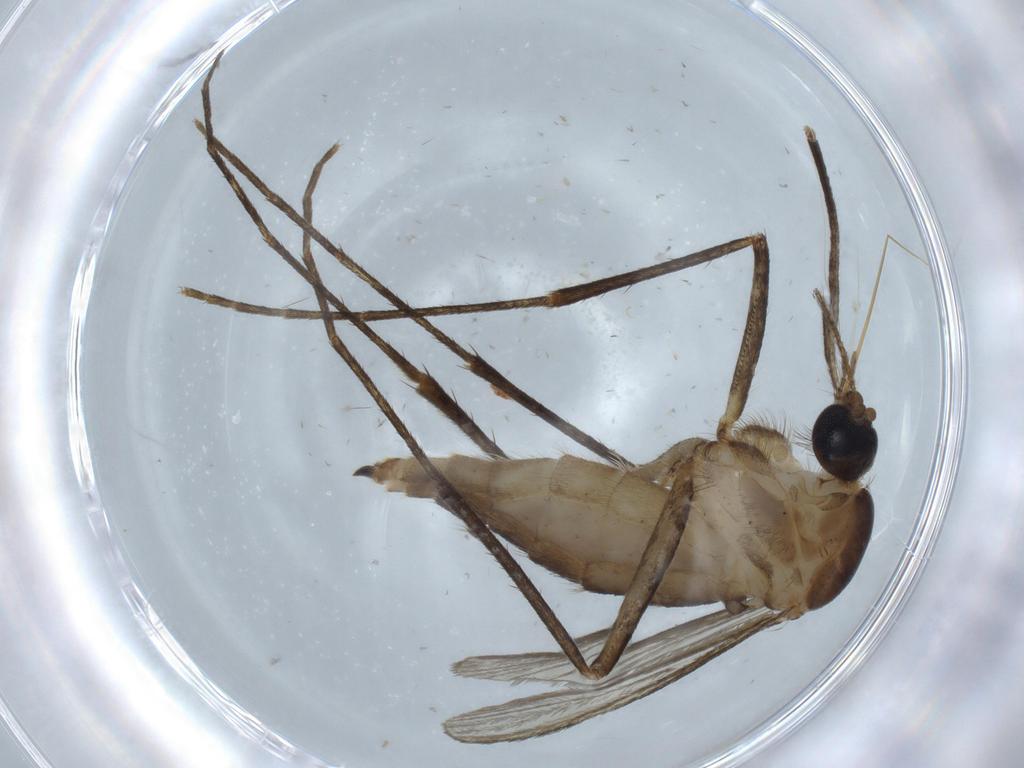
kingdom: Animalia
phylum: Arthropoda
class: Insecta
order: Diptera
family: Culicidae
